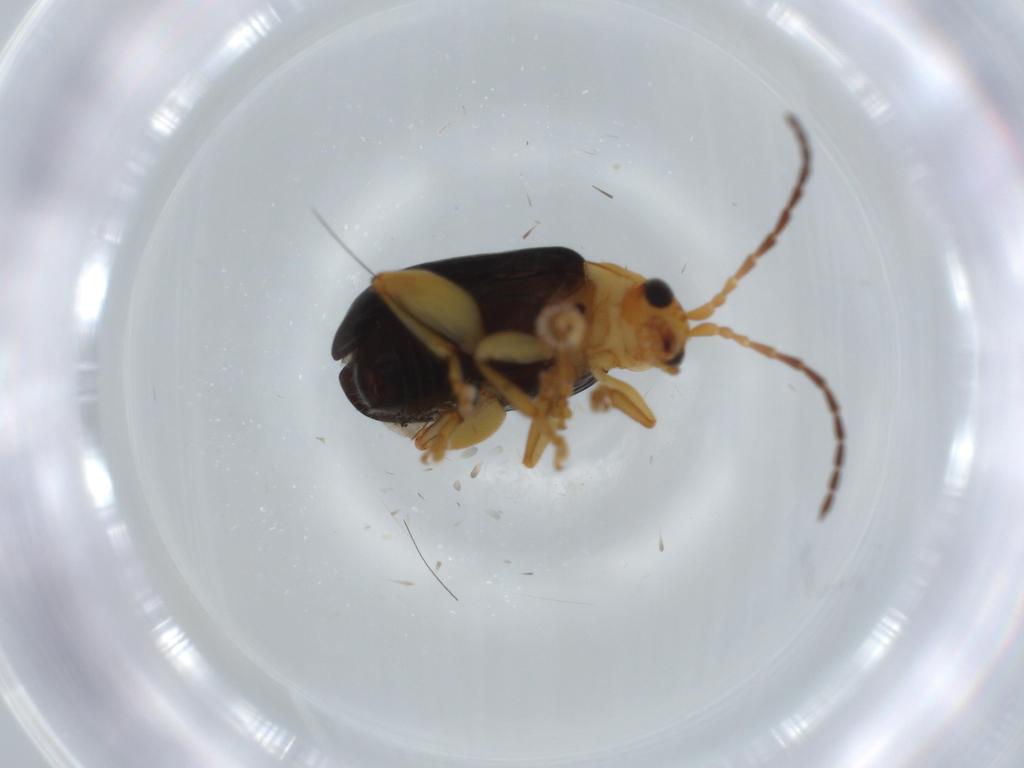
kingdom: Animalia
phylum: Arthropoda
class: Insecta
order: Coleoptera
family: Chrysomelidae
